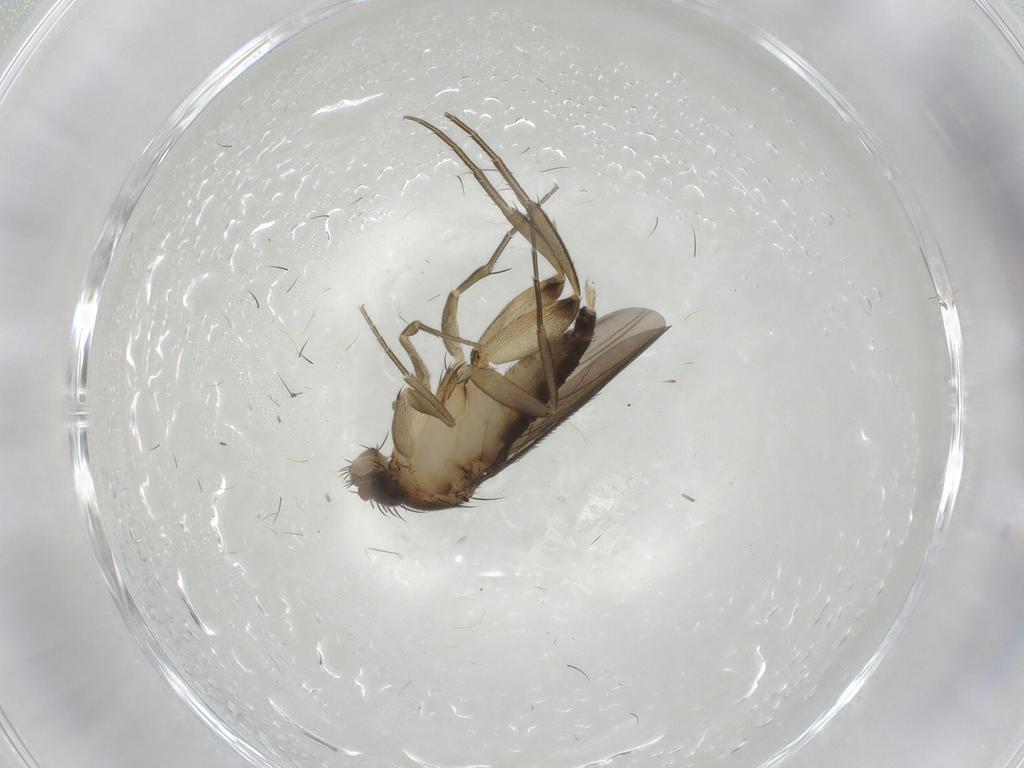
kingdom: Animalia
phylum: Arthropoda
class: Insecta
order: Diptera
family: Phoridae
